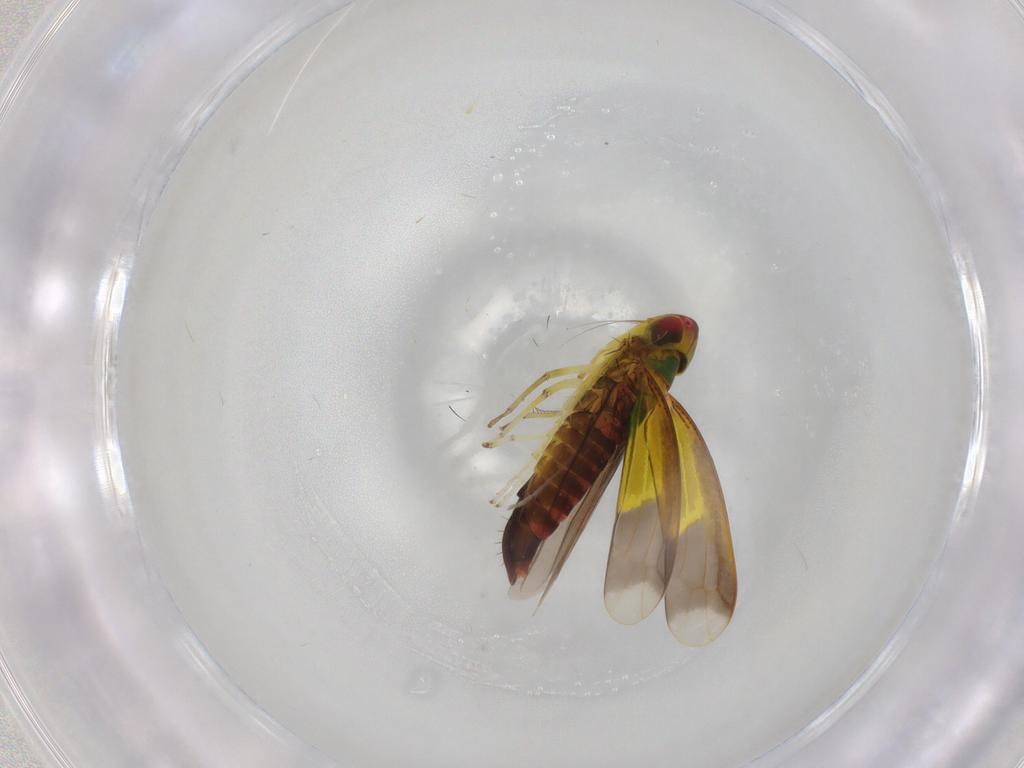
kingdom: Animalia
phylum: Arthropoda
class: Insecta
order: Hemiptera
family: Cicadellidae
